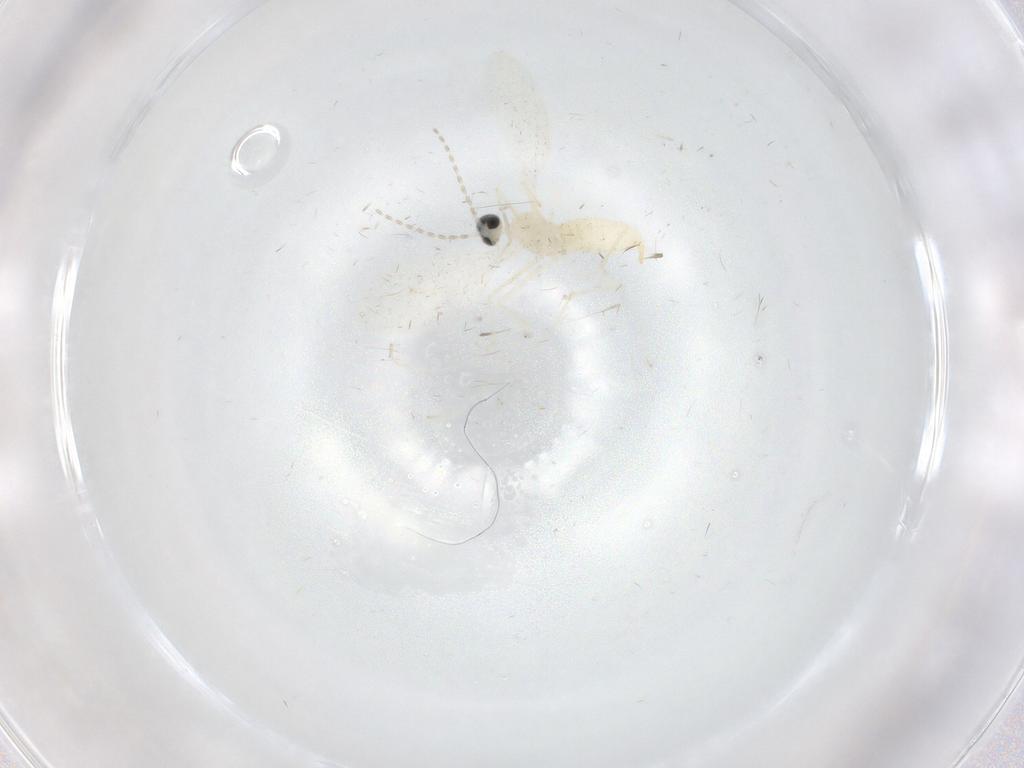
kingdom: Animalia
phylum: Arthropoda
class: Insecta
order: Diptera
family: Cecidomyiidae
